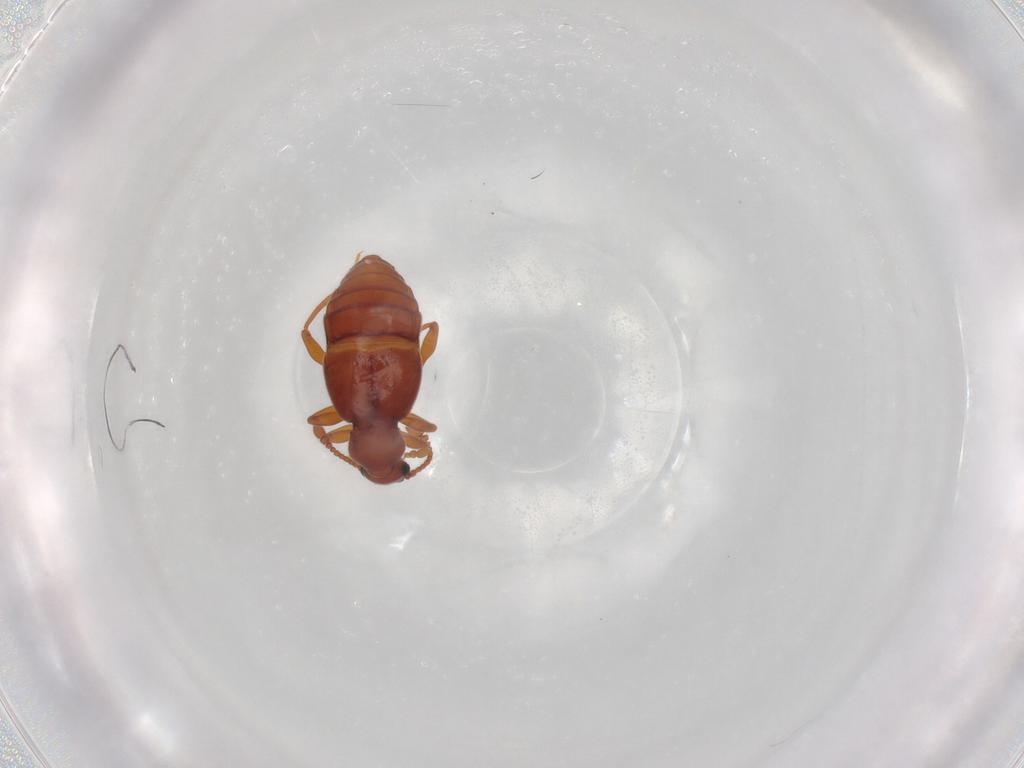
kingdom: Animalia
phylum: Arthropoda
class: Insecta
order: Coleoptera
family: Staphylinidae
